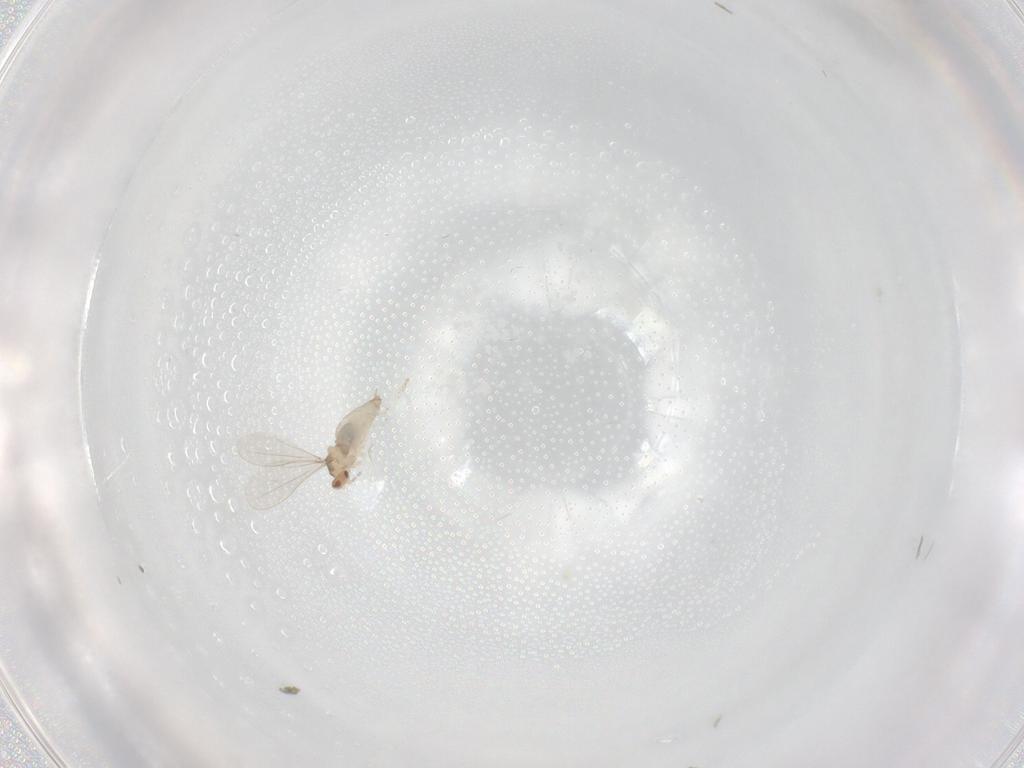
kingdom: Animalia
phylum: Arthropoda
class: Insecta
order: Diptera
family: Cecidomyiidae
